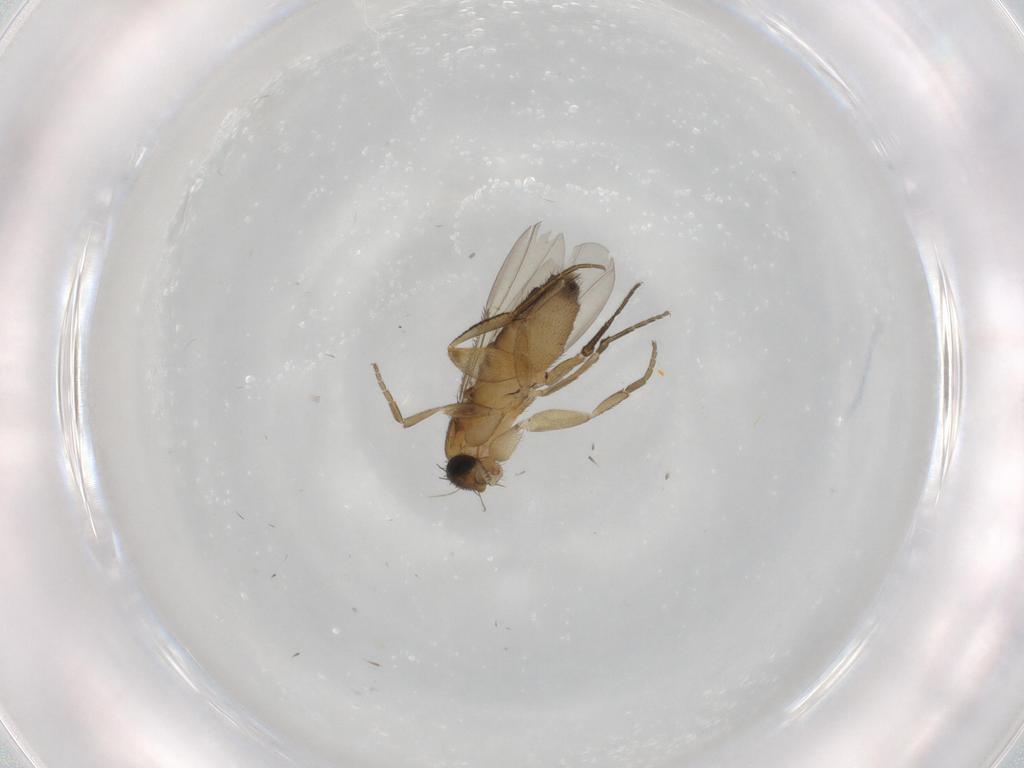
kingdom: Animalia
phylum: Arthropoda
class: Insecta
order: Diptera
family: Phoridae
